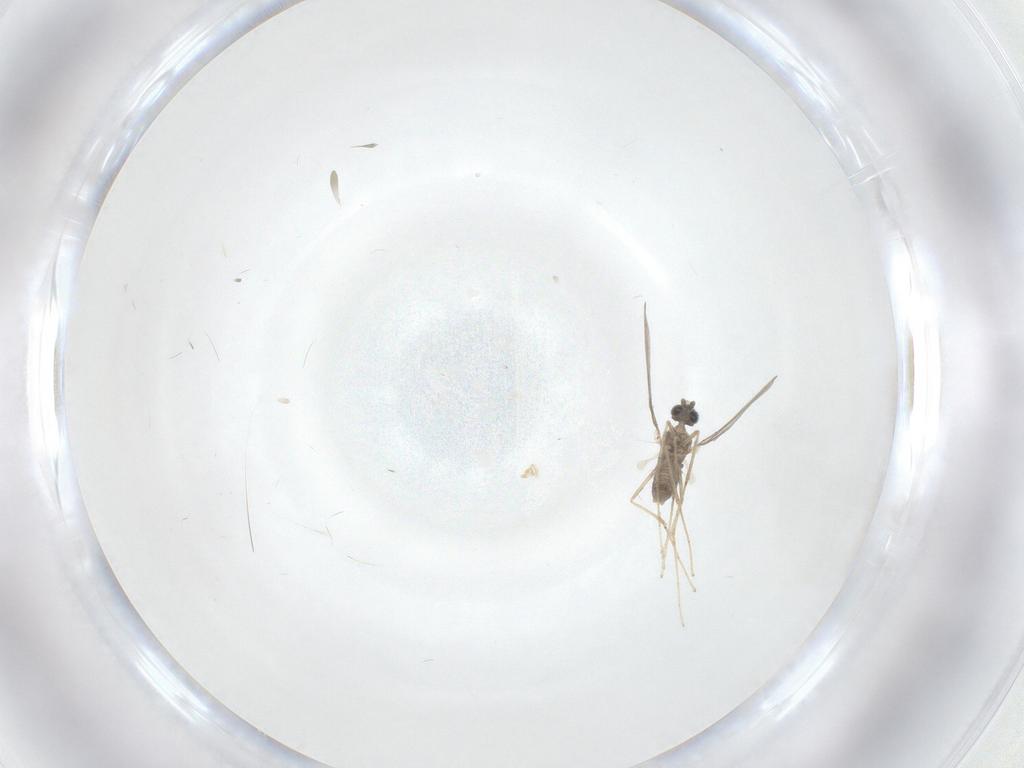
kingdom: Animalia
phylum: Arthropoda
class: Insecta
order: Diptera
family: Cecidomyiidae
